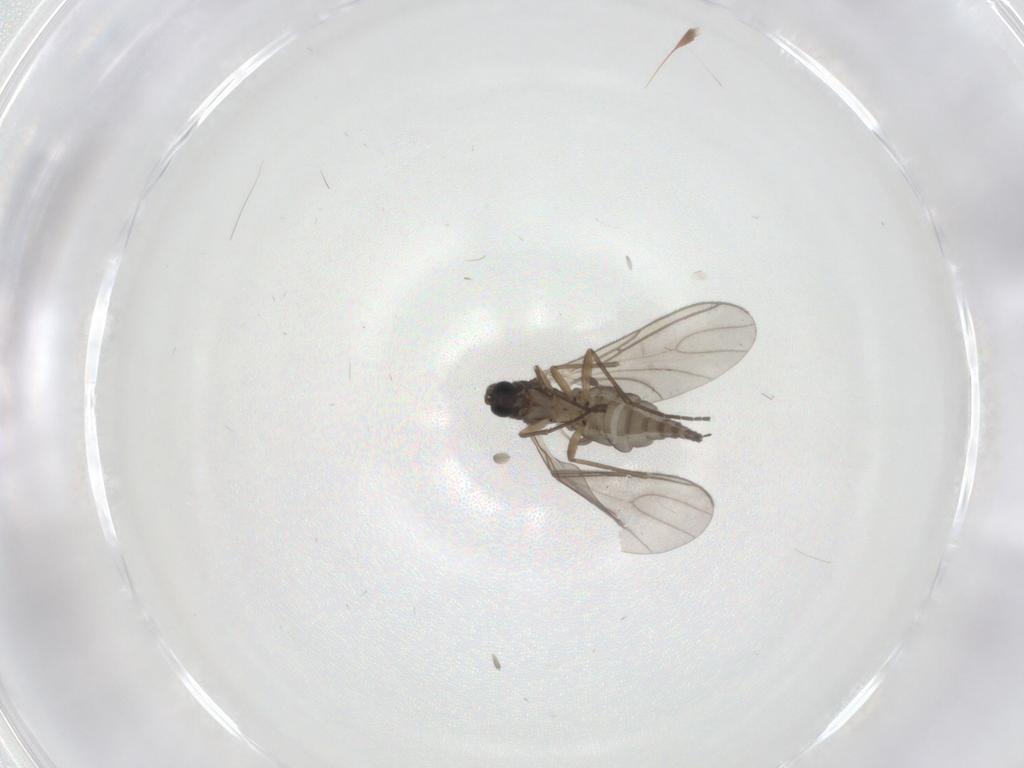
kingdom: Animalia
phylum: Arthropoda
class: Insecta
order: Diptera
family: Sciaridae
